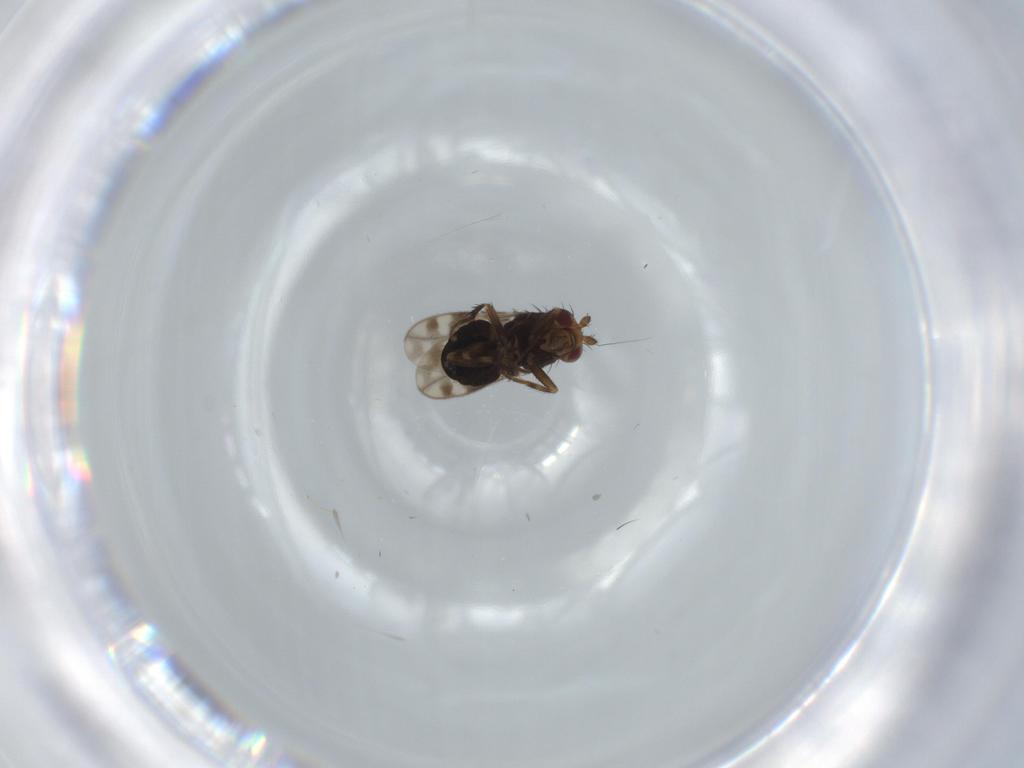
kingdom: Animalia
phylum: Arthropoda
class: Insecta
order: Diptera
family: Sphaeroceridae
